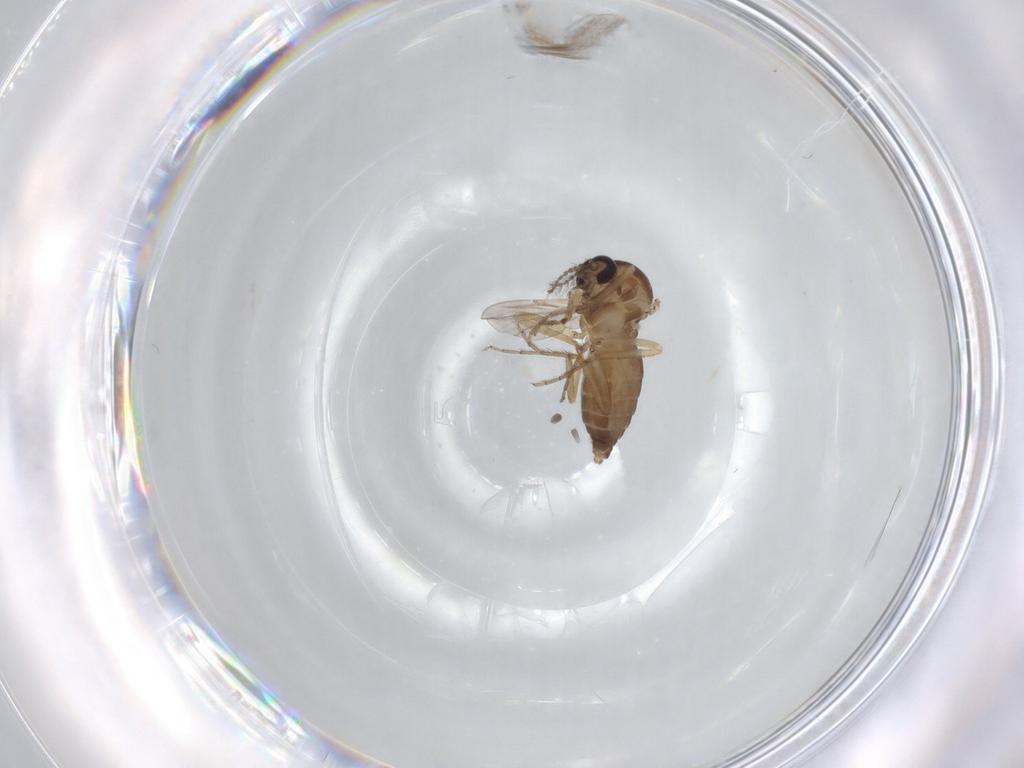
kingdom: Animalia
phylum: Arthropoda
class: Insecta
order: Diptera
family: Ceratopogonidae
